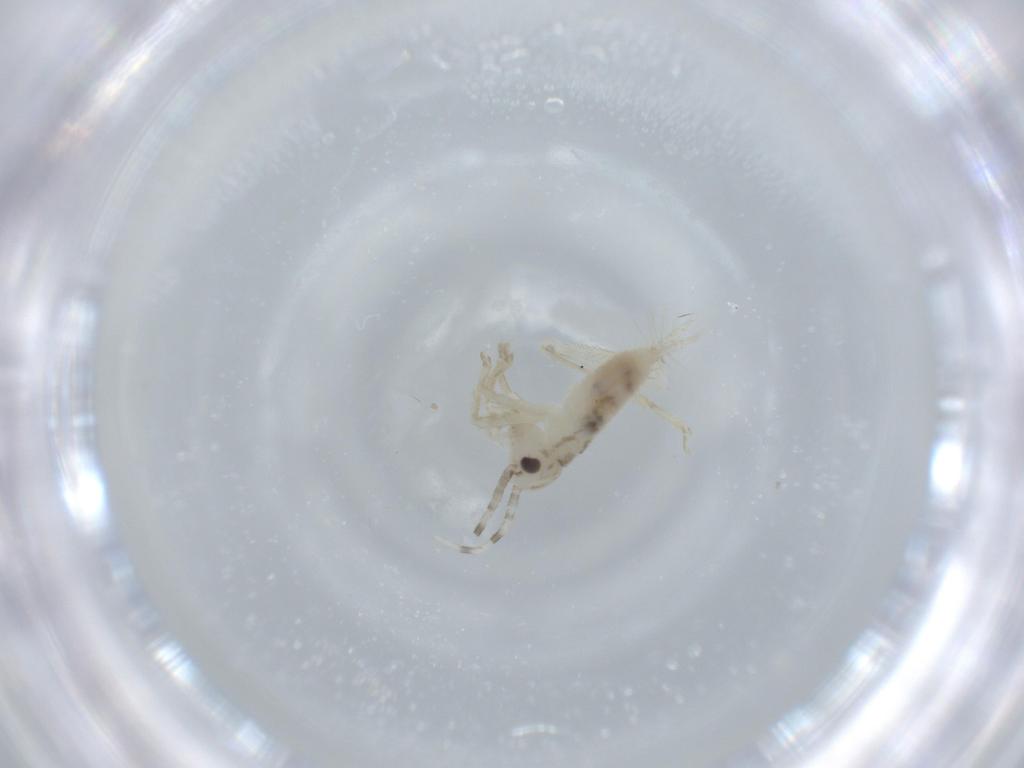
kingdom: Animalia
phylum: Arthropoda
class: Insecta
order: Orthoptera
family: Trigonidiidae
